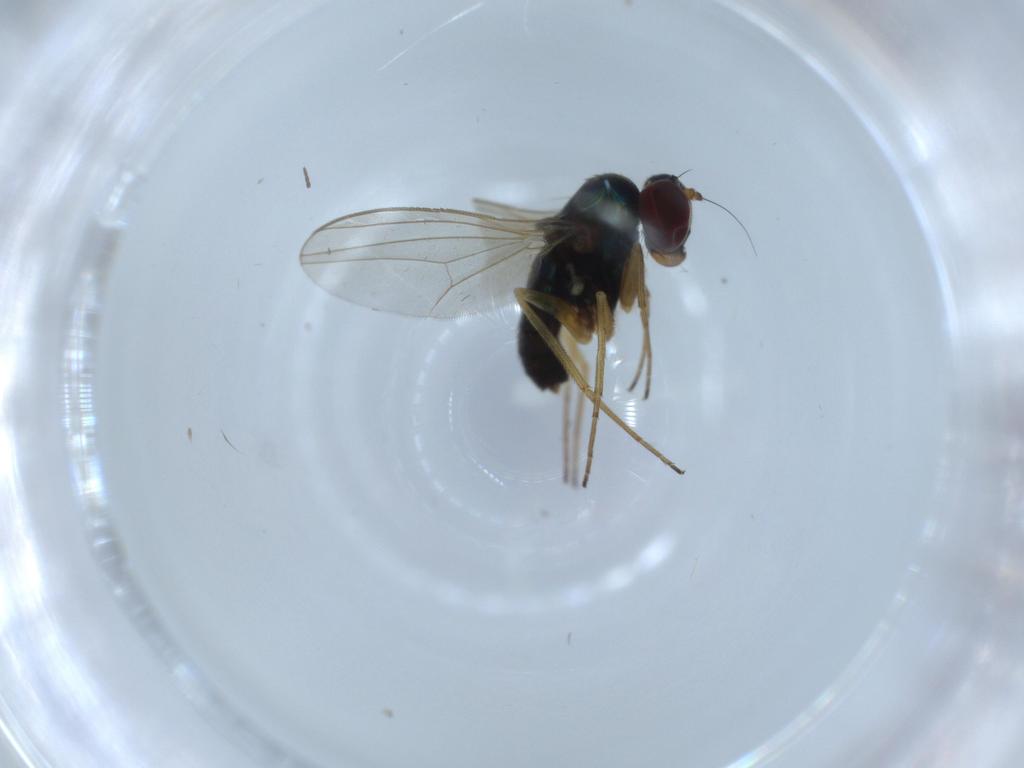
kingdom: Animalia
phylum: Arthropoda
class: Insecta
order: Diptera
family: Dolichopodidae
